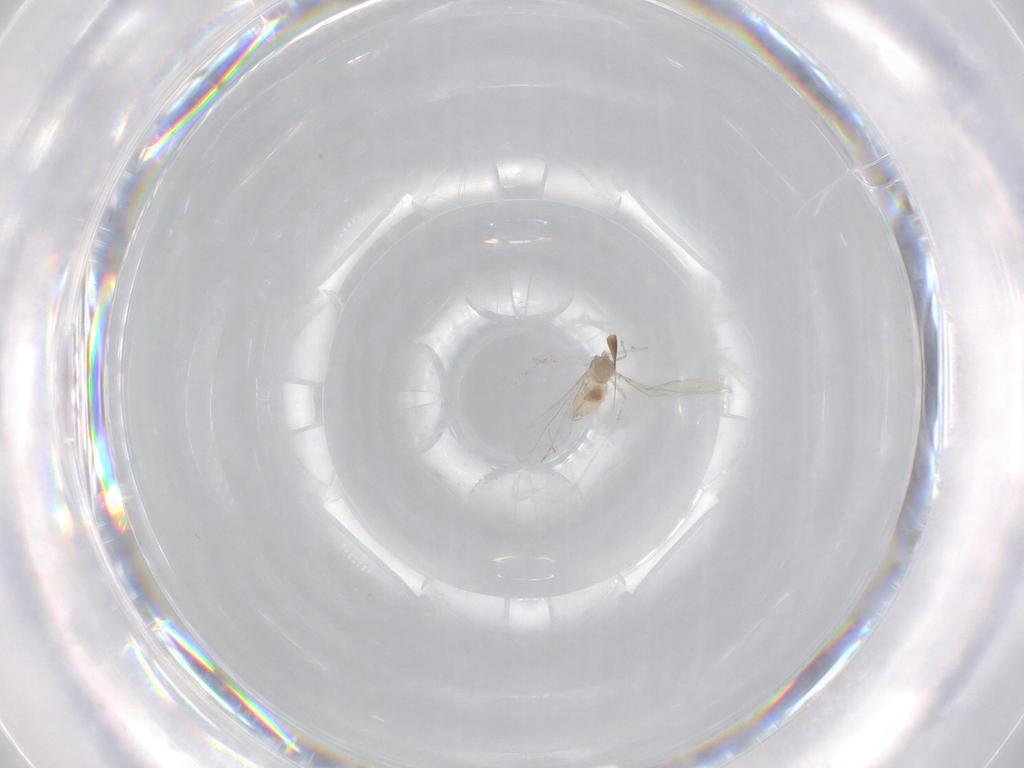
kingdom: Animalia
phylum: Arthropoda
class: Insecta
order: Diptera
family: Cecidomyiidae
